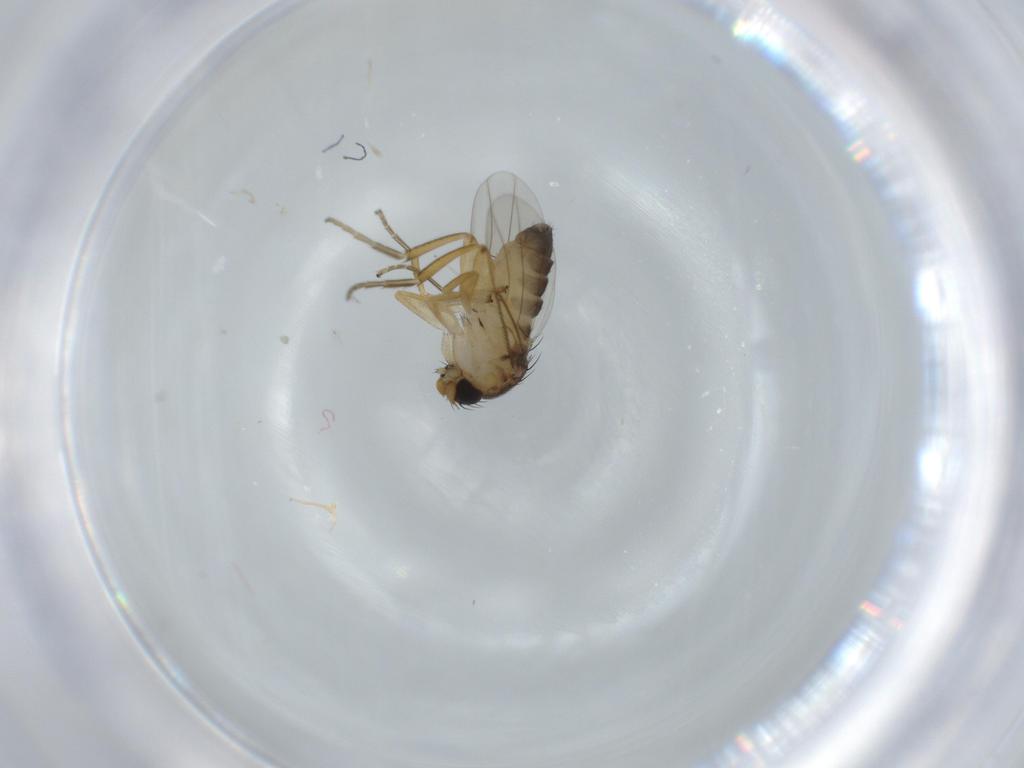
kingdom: Animalia
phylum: Arthropoda
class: Insecta
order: Diptera
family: Phoridae
